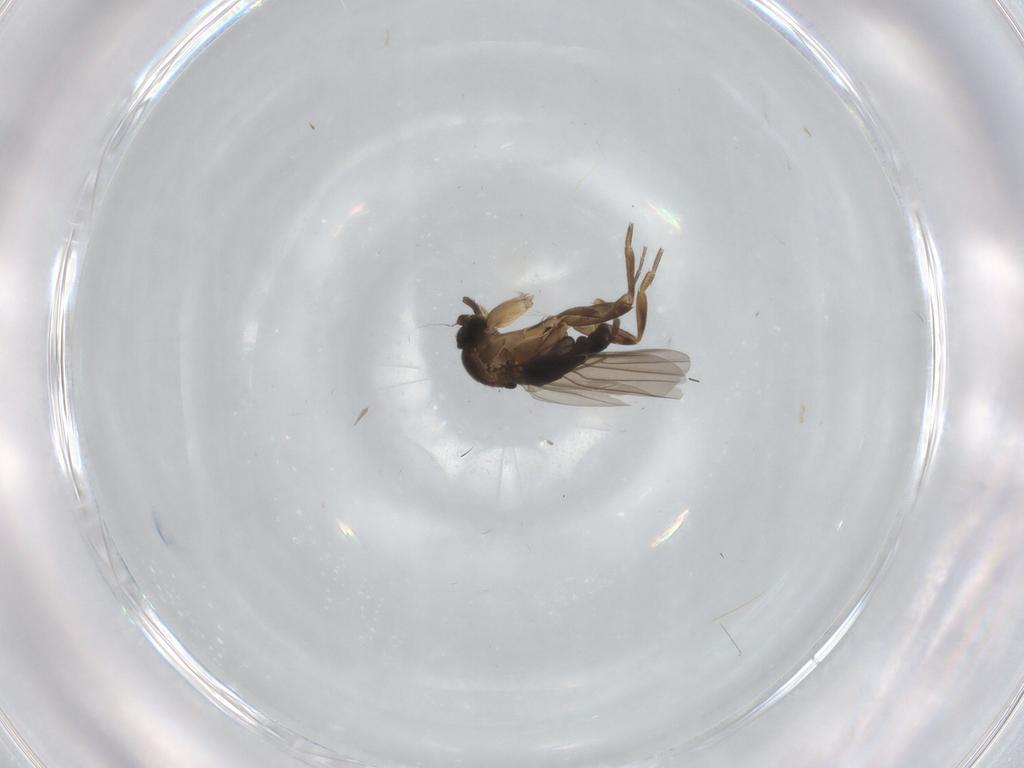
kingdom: Animalia
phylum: Arthropoda
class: Insecta
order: Diptera
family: Phoridae
